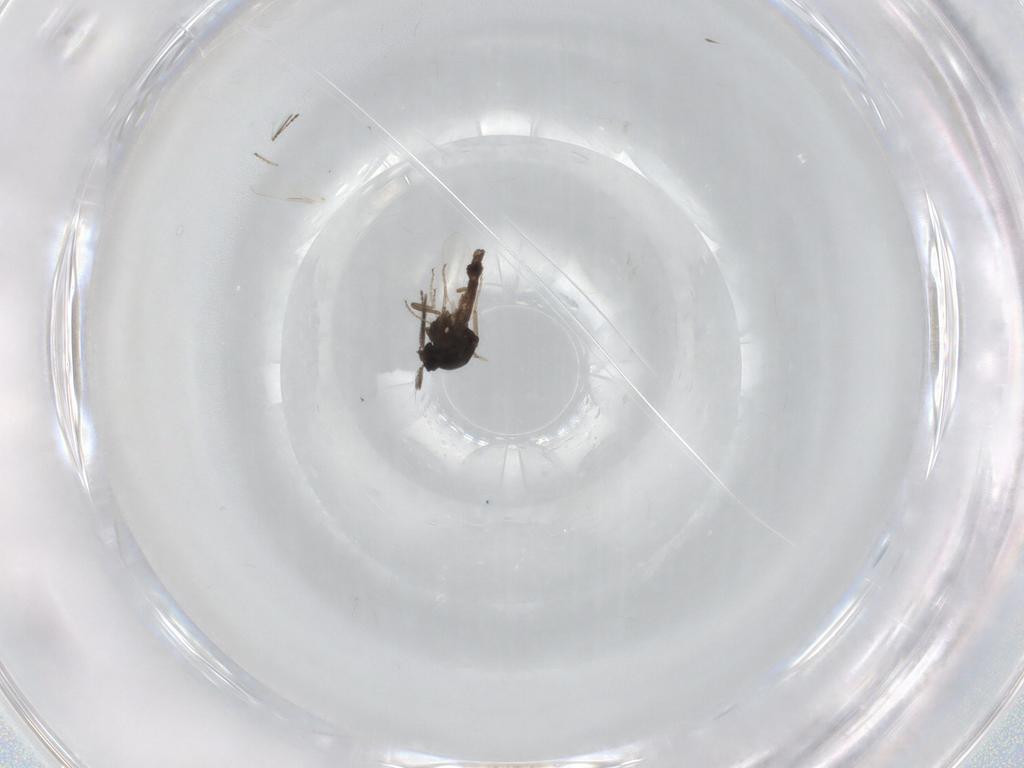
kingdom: Animalia
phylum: Arthropoda
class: Insecta
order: Diptera
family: Ceratopogonidae
